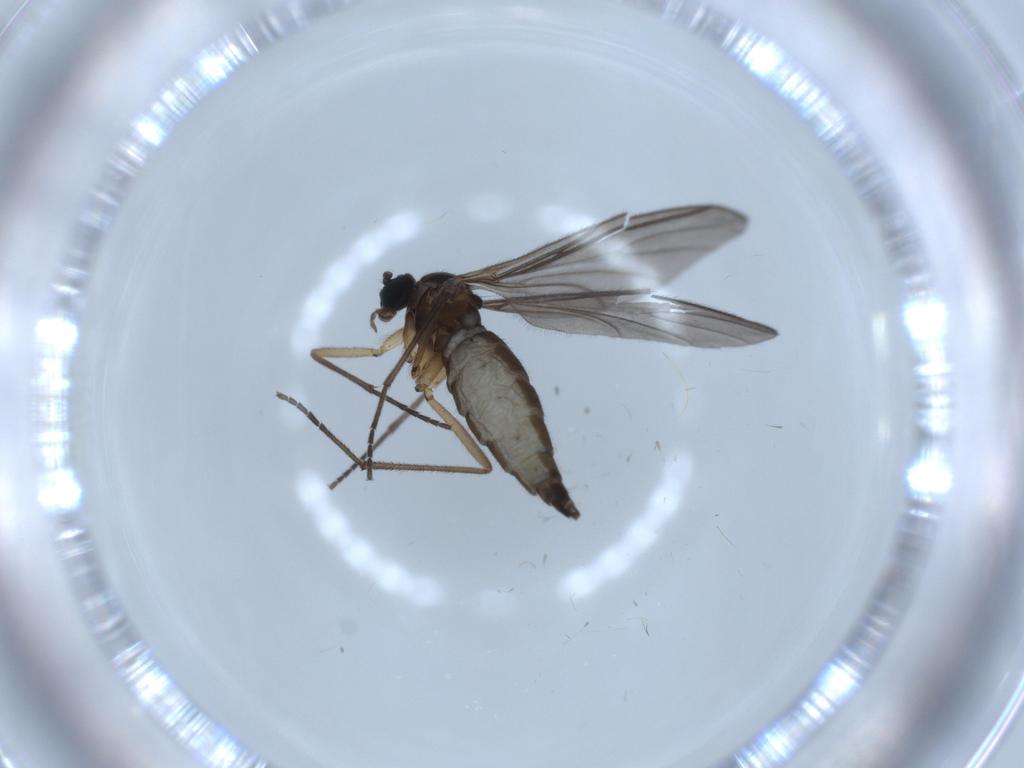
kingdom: Animalia
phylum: Arthropoda
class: Insecta
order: Diptera
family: Sciaridae
